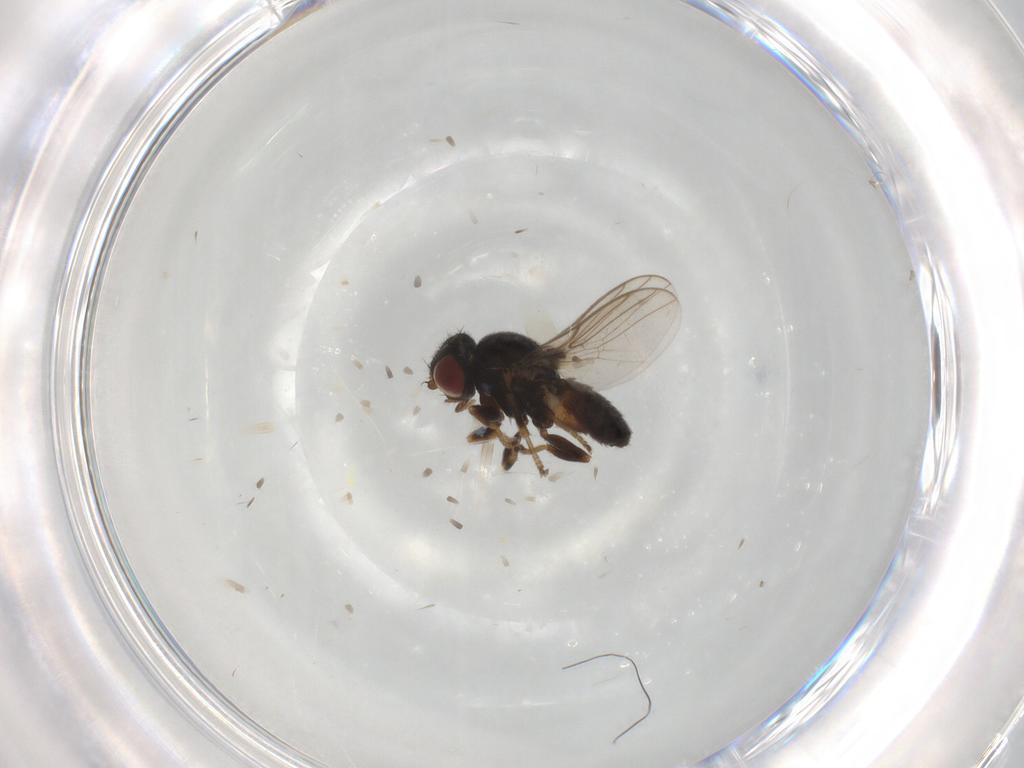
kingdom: Animalia
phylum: Arthropoda
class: Insecta
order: Diptera
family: Chloropidae
